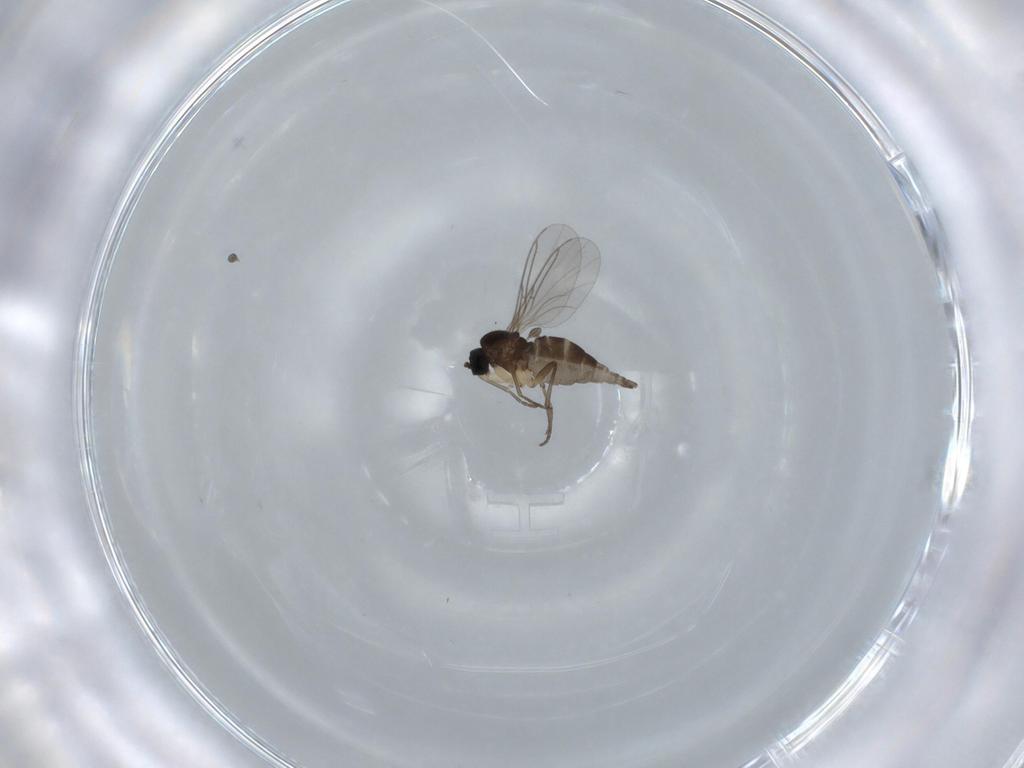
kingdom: Animalia
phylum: Arthropoda
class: Insecta
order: Diptera
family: Sciaridae
